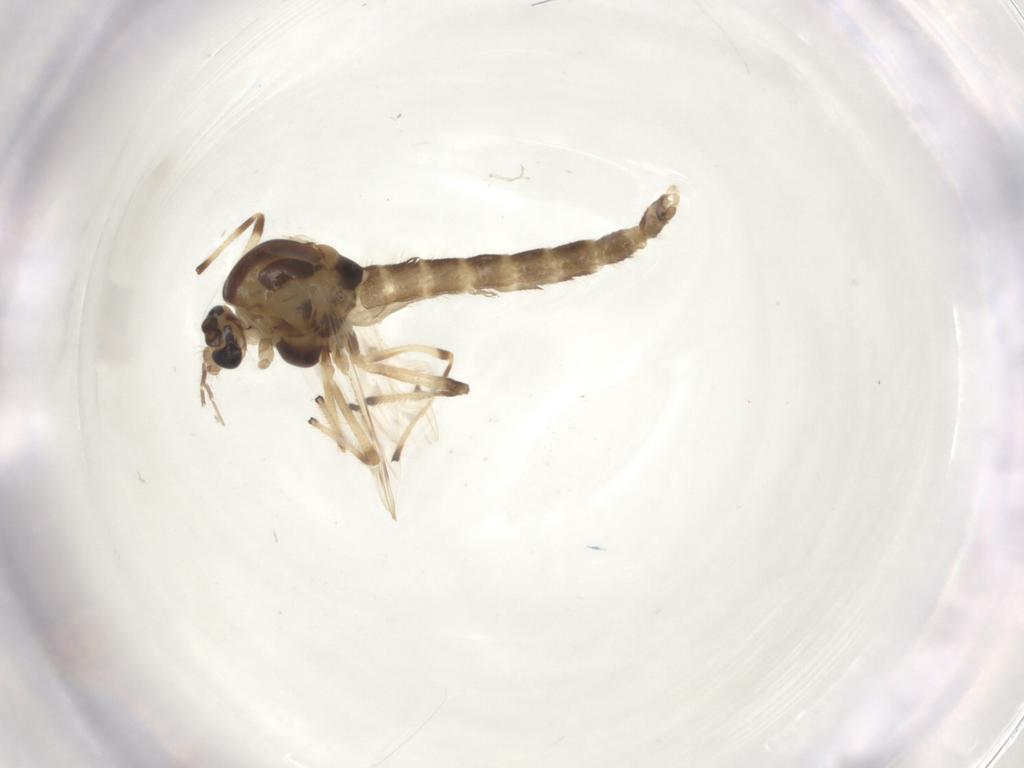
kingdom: Animalia
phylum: Arthropoda
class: Insecta
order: Diptera
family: Chironomidae
